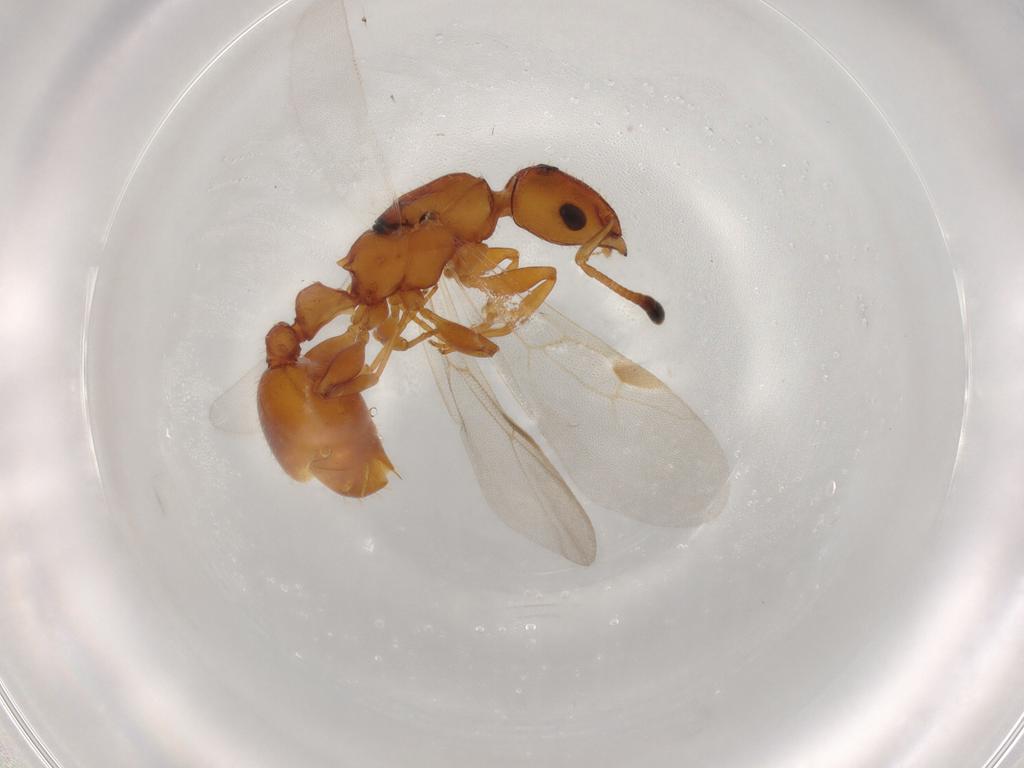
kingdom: Animalia
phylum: Arthropoda
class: Insecta
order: Hymenoptera
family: Formicidae
